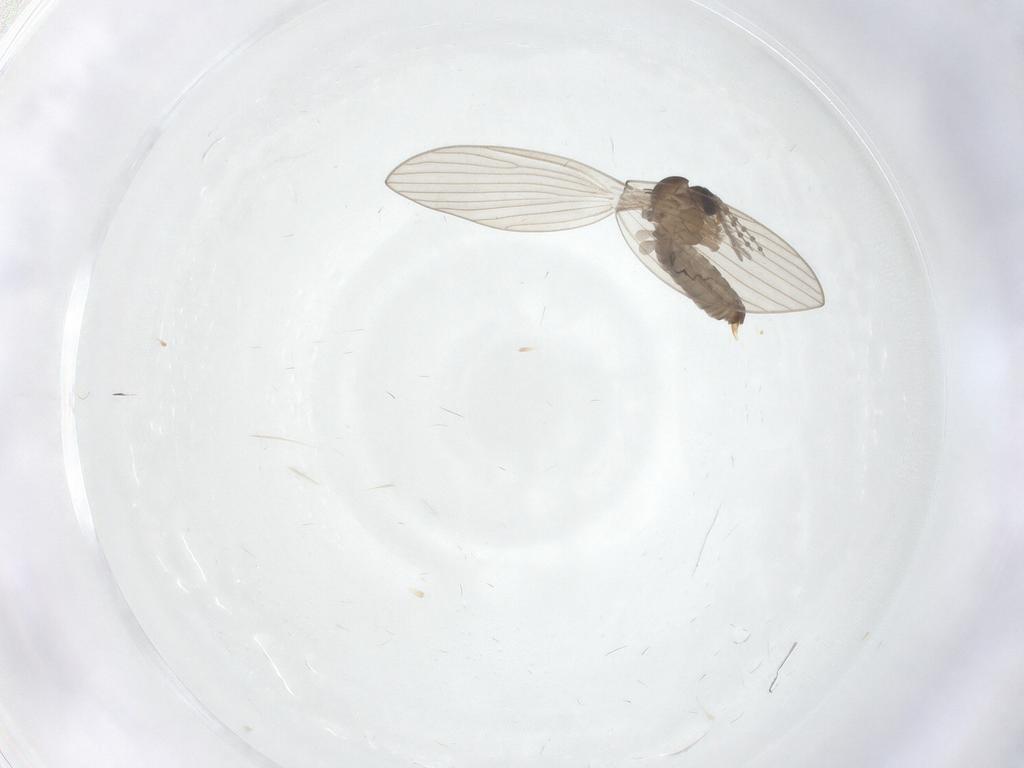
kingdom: Animalia
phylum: Arthropoda
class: Insecta
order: Diptera
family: Psychodidae
